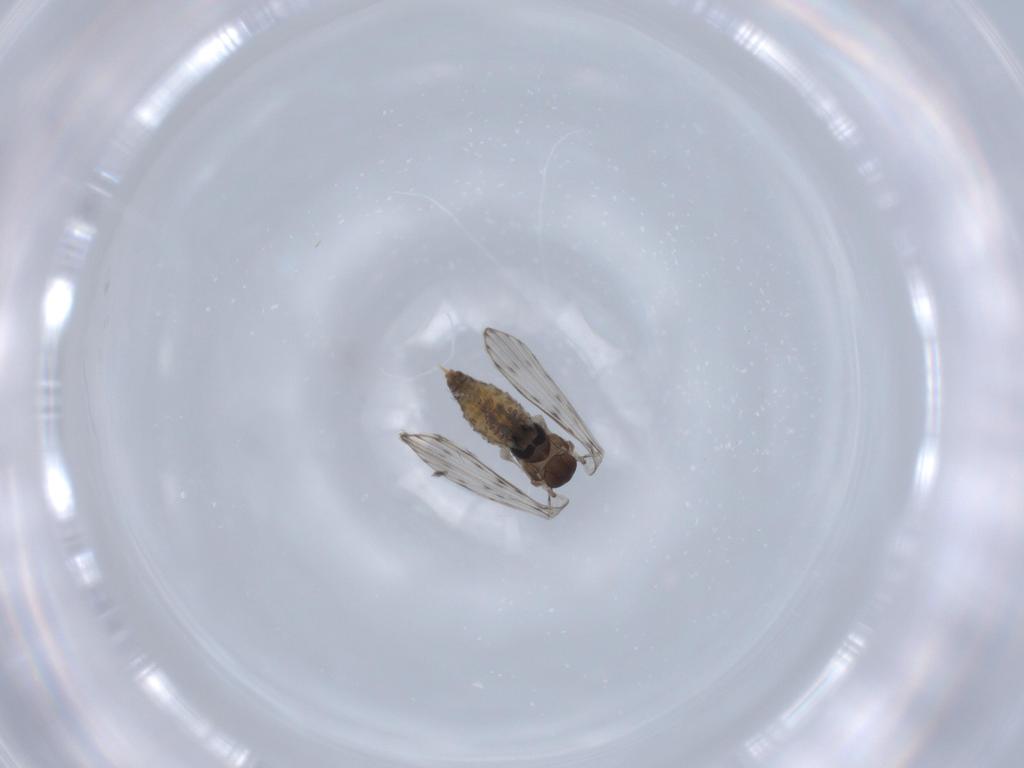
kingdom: Animalia
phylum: Arthropoda
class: Insecta
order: Diptera
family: Psychodidae
